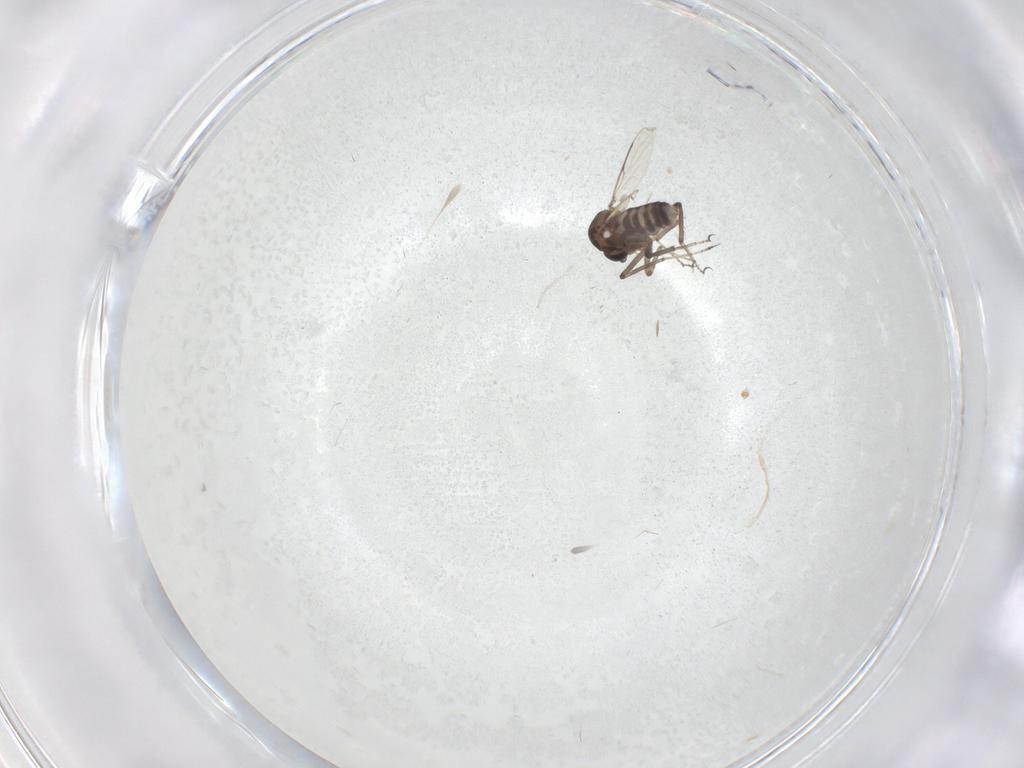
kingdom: Animalia
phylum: Arthropoda
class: Insecta
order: Diptera
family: Ceratopogonidae
